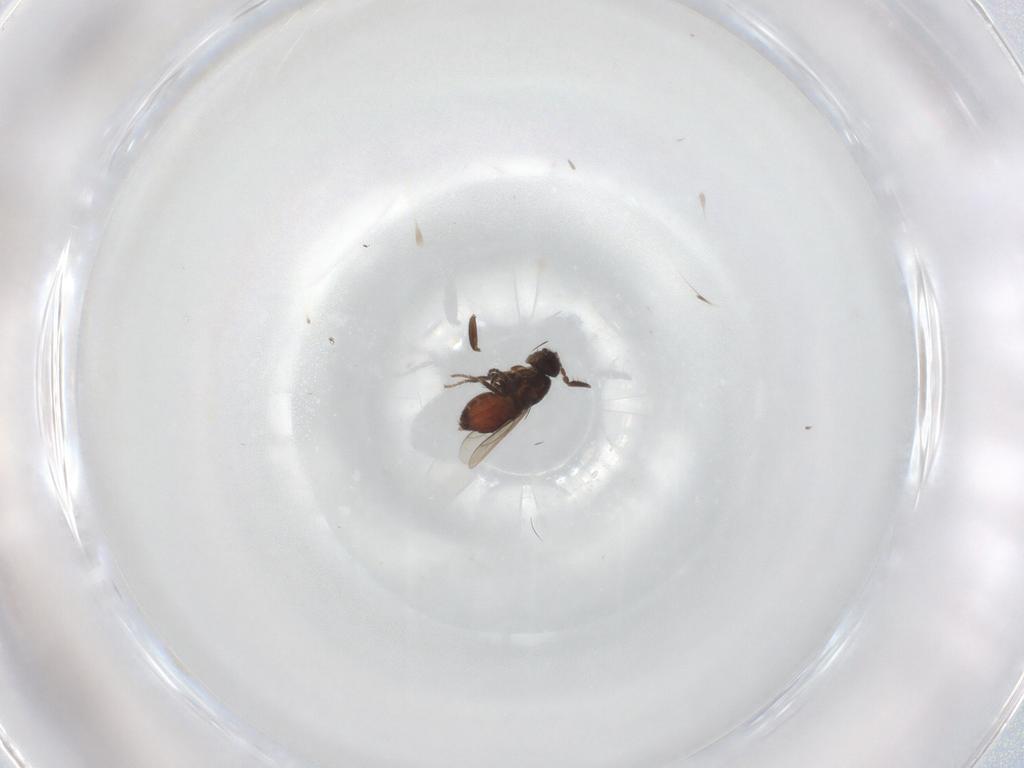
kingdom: Animalia
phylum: Arthropoda
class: Insecta
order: Diptera
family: Sphaeroceridae
